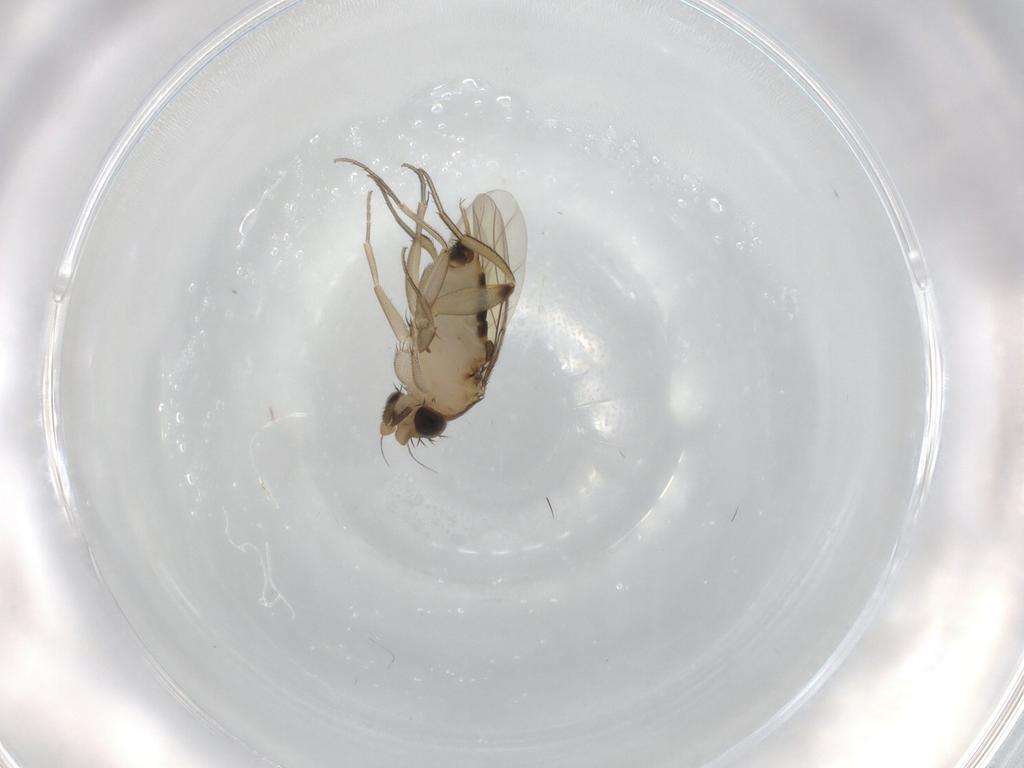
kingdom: Animalia
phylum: Arthropoda
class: Insecta
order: Diptera
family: Phoridae
